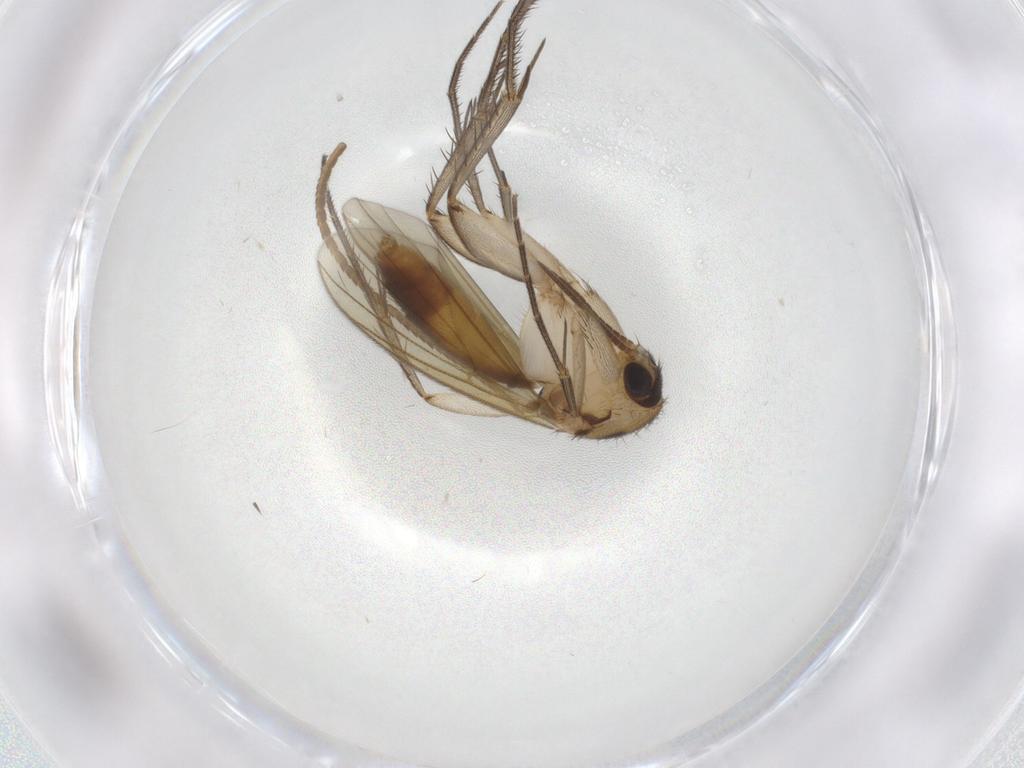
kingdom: Animalia
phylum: Arthropoda
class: Insecta
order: Diptera
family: Mycetophilidae
